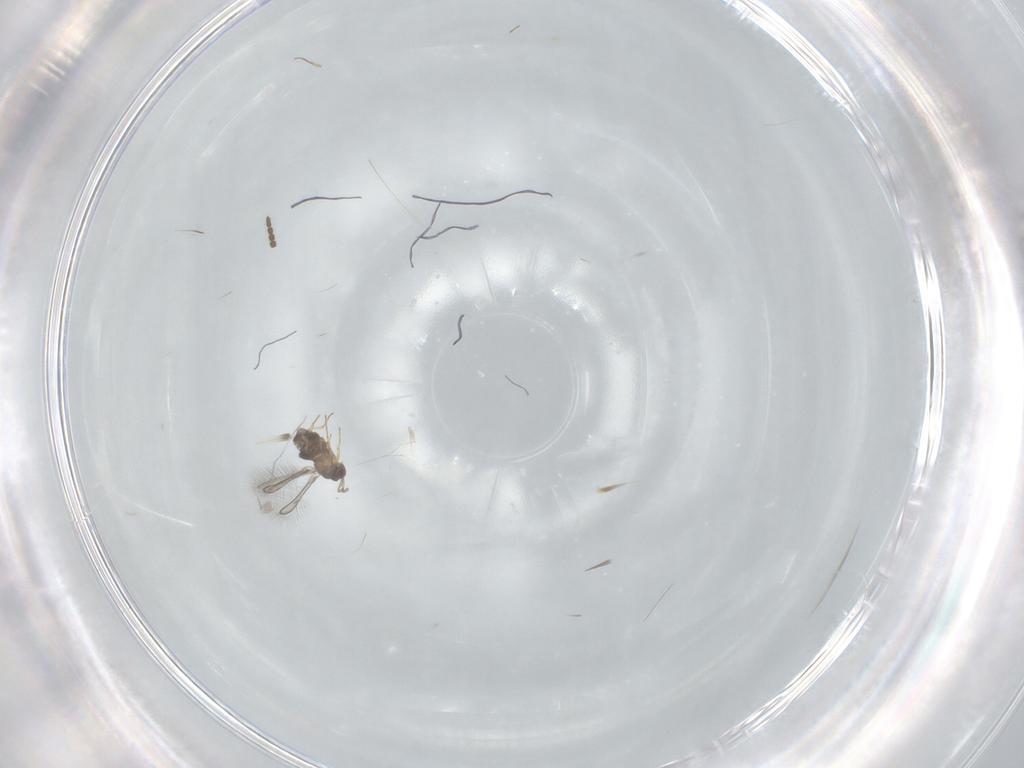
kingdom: Animalia
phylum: Arthropoda
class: Insecta
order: Hymenoptera
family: Mymaridae
